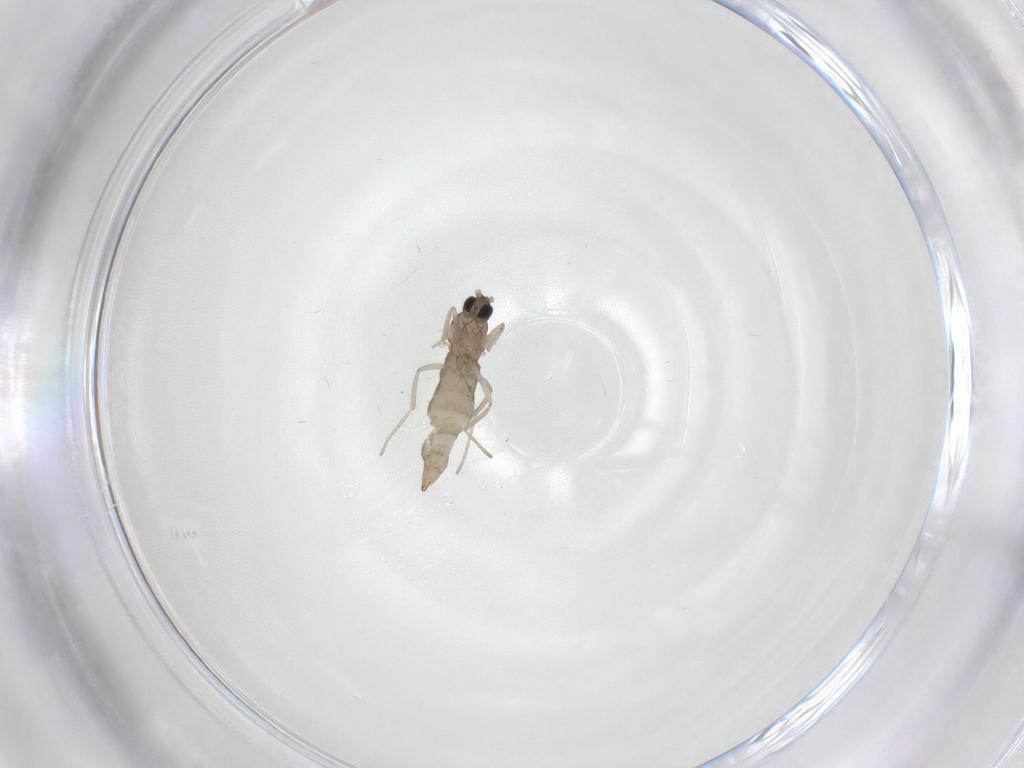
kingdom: Animalia
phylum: Arthropoda
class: Insecta
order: Diptera
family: Cecidomyiidae
